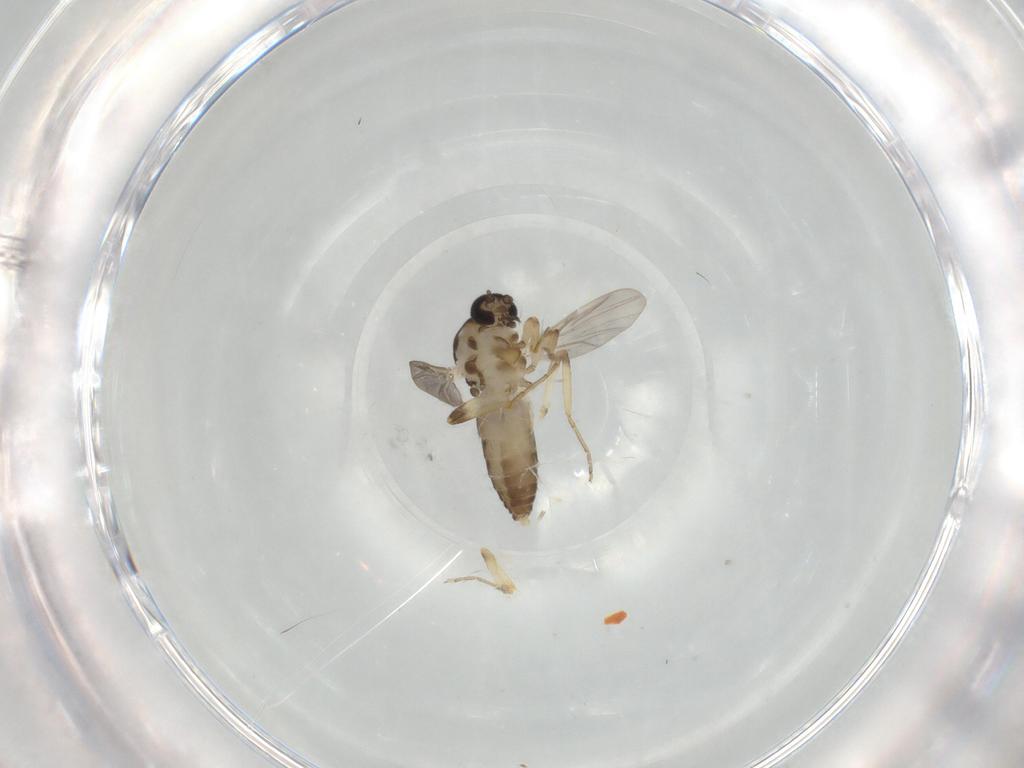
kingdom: Animalia
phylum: Arthropoda
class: Insecta
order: Diptera
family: Ceratopogonidae
